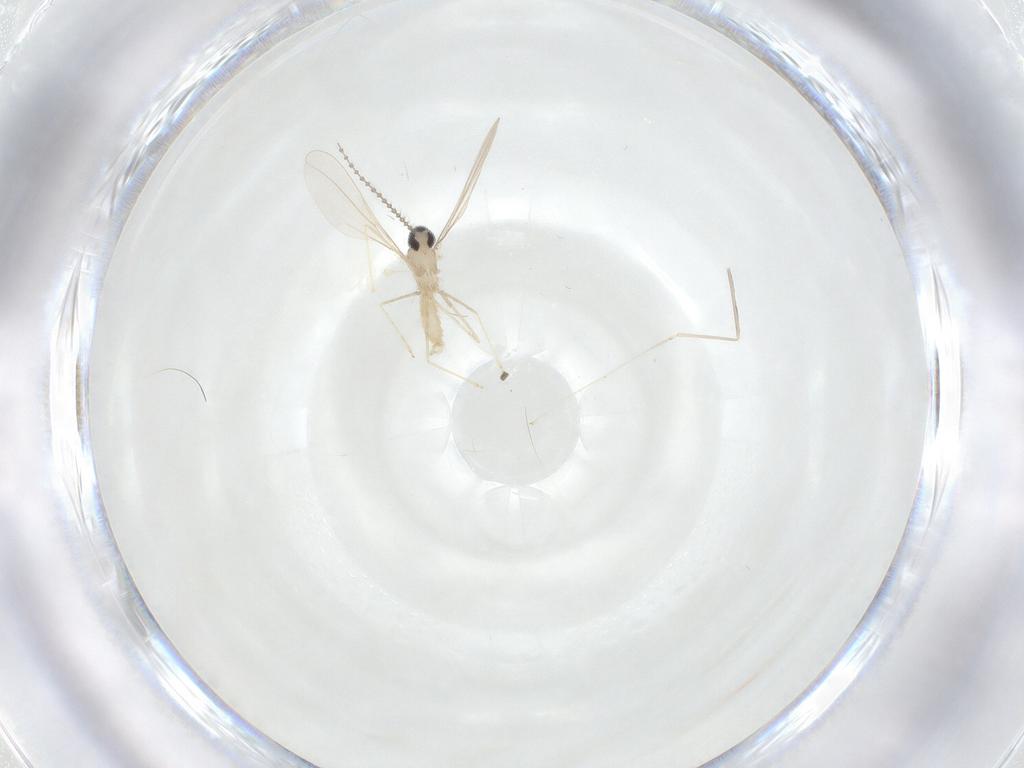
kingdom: Animalia
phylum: Arthropoda
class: Insecta
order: Diptera
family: Cecidomyiidae
